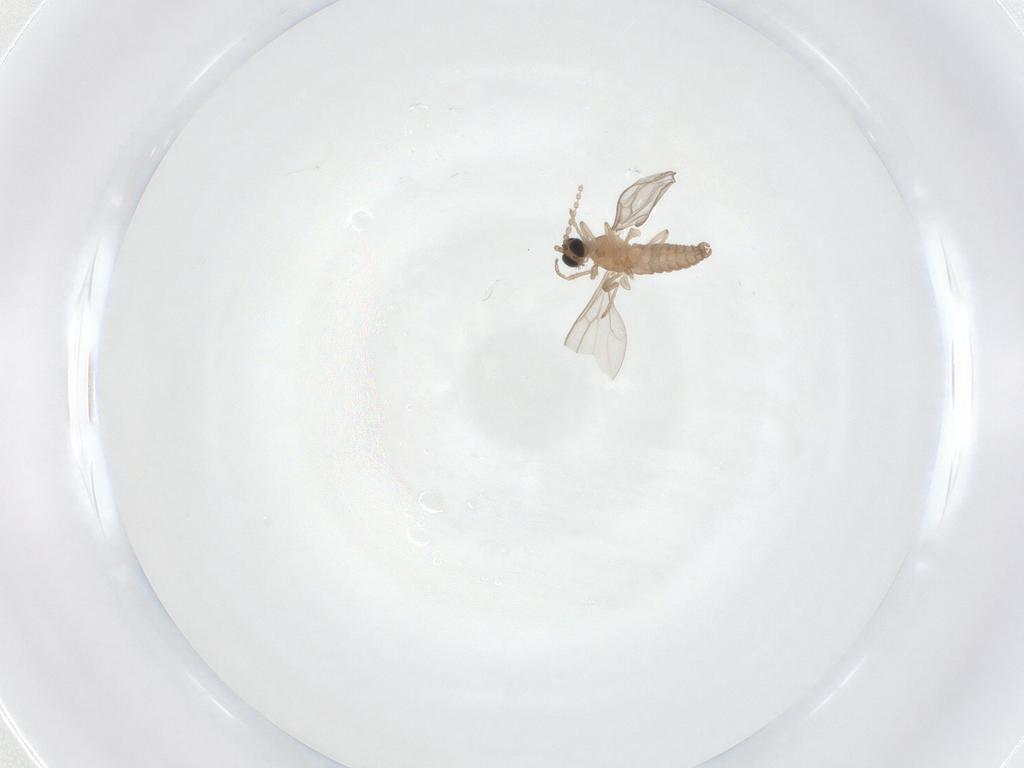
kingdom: Animalia
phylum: Arthropoda
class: Insecta
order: Diptera
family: Cecidomyiidae
